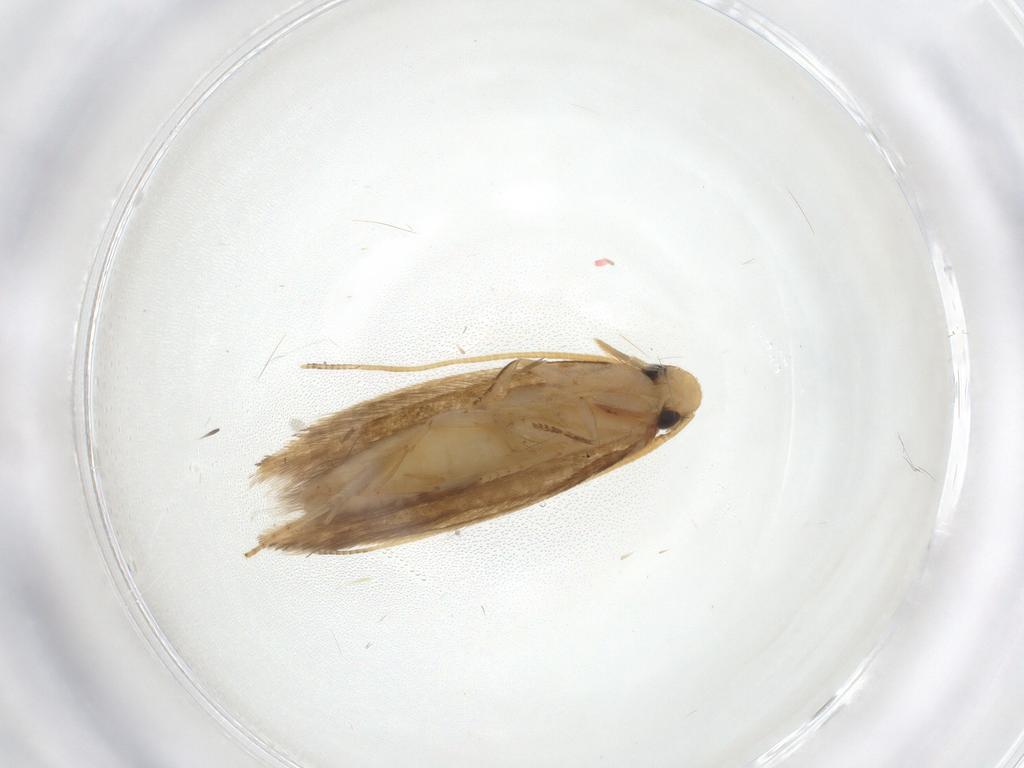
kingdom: Animalia
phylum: Arthropoda
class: Insecta
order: Lepidoptera
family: Tineidae
